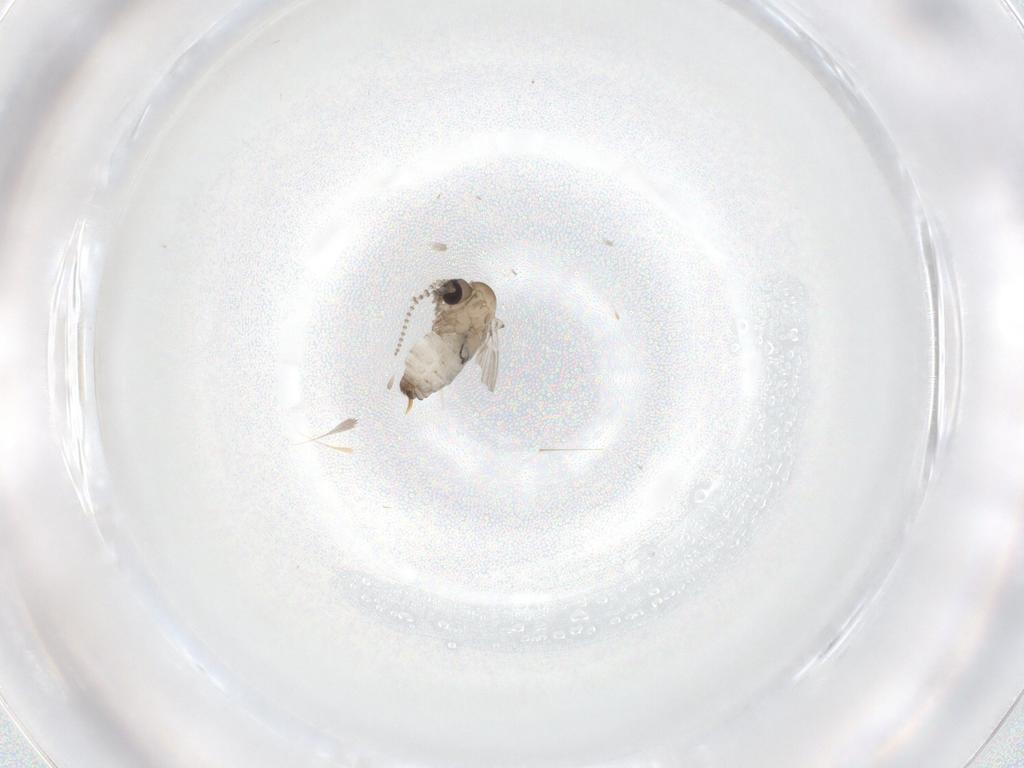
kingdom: Animalia
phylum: Arthropoda
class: Insecta
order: Diptera
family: Psychodidae
